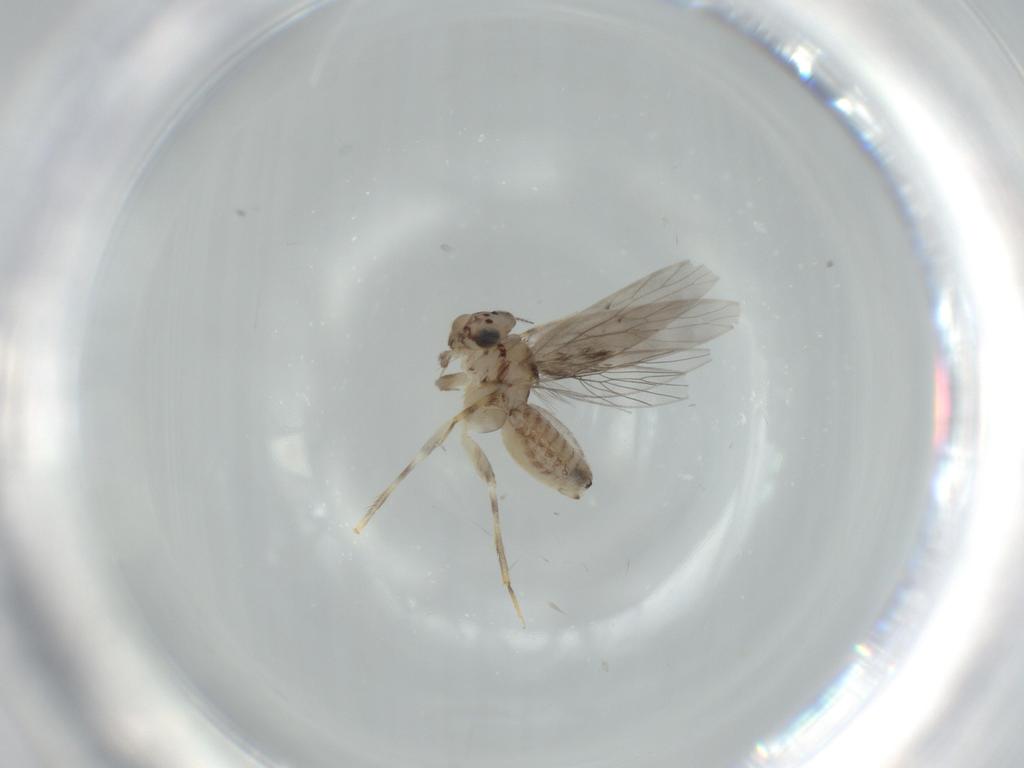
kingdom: Animalia
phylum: Arthropoda
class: Insecta
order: Psocodea
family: Lepidopsocidae
